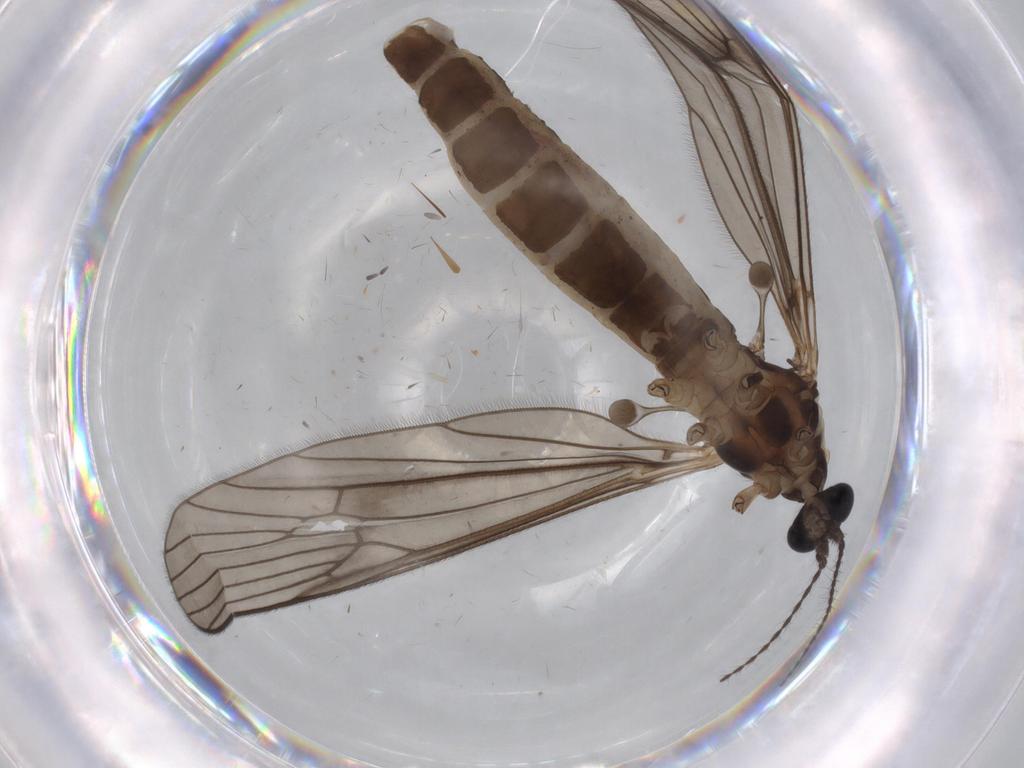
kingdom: Animalia
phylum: Arthropoda
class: Insecta
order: Diptera
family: Limoniidae
